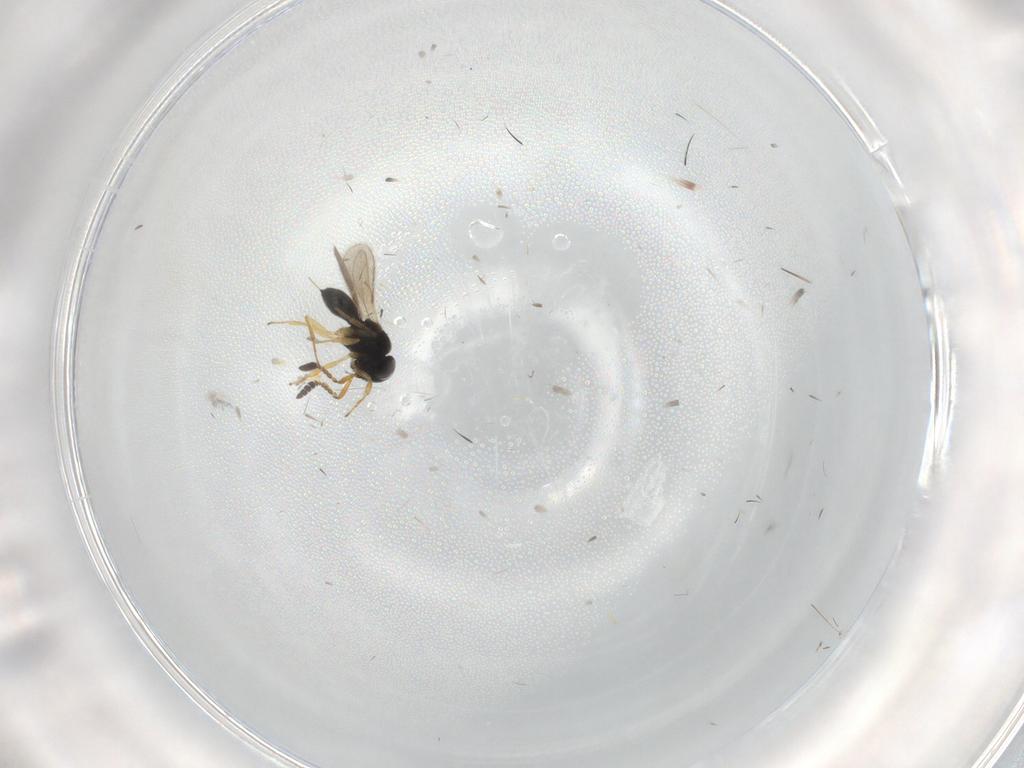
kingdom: Animalia
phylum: Arthropoda
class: Insecta
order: Hymenoptera
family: Scelionidae
